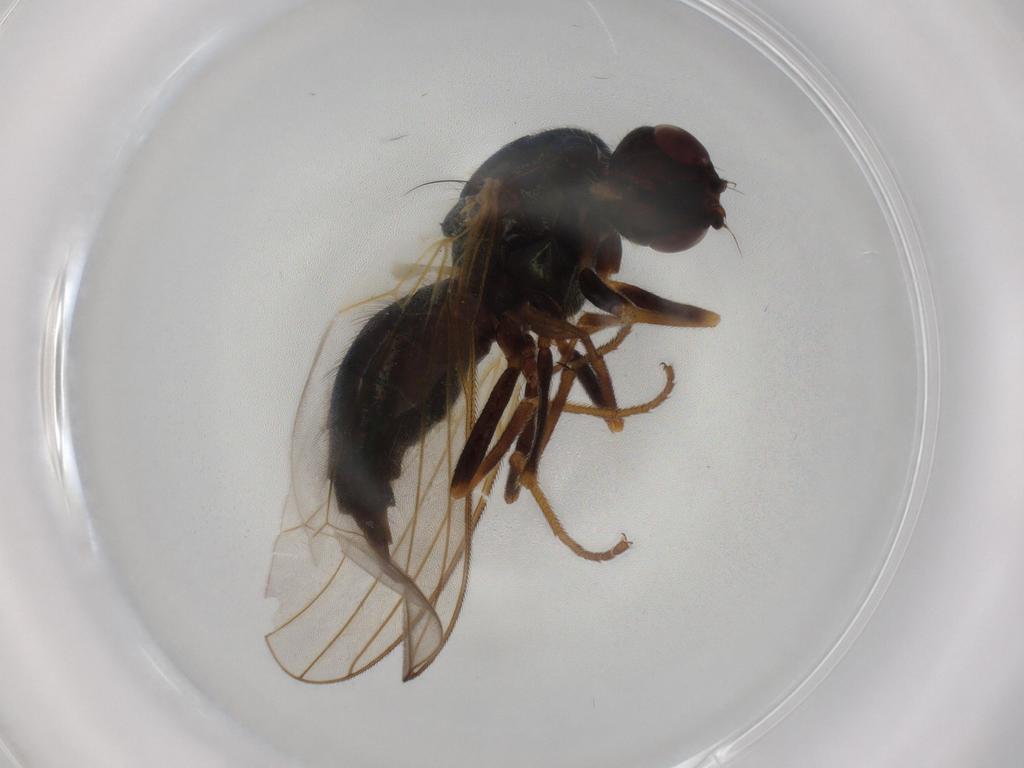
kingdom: Animalia
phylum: Arthropoda
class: Insecta
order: Diptera
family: Hybotidae
